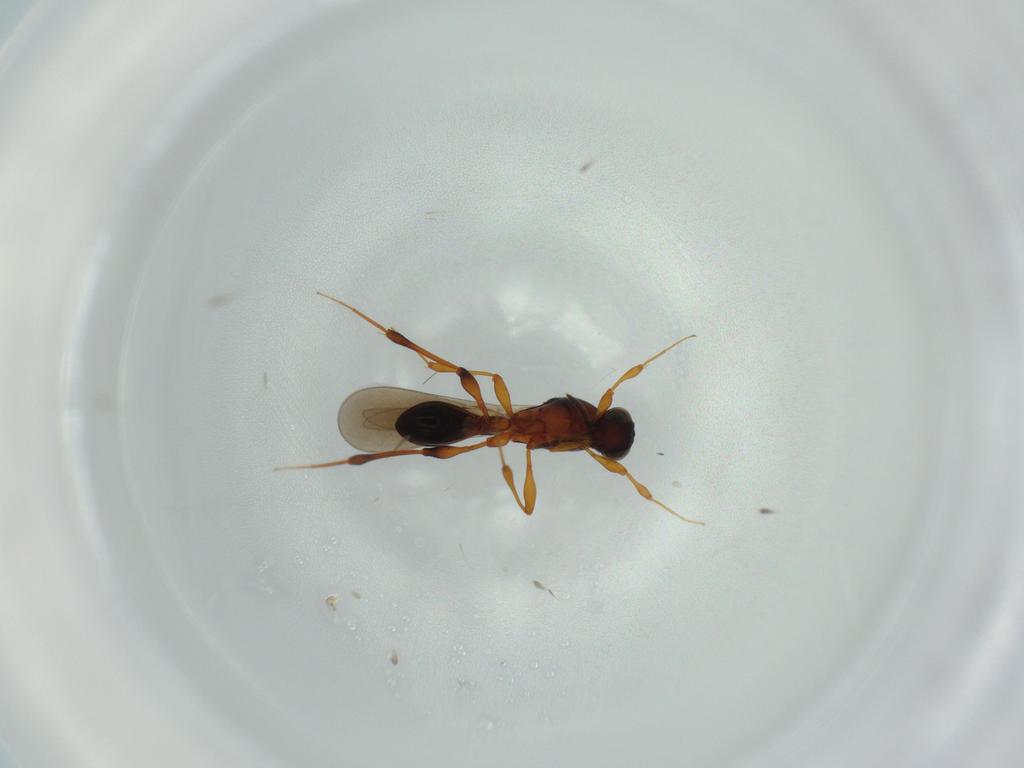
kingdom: Animalia
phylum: Arthropoda
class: Insecta
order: Hymenoptera
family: Platygastridae
